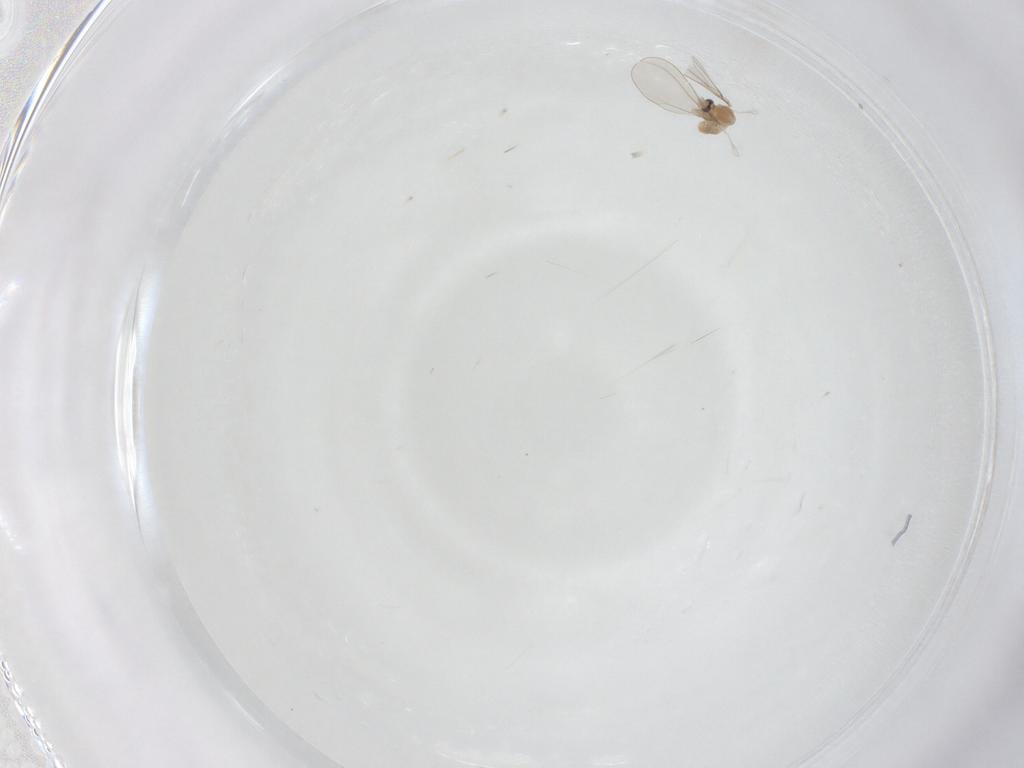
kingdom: Animalia
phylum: Arthropoda
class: Insecta
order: Diptera
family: Cecidomyiidae
